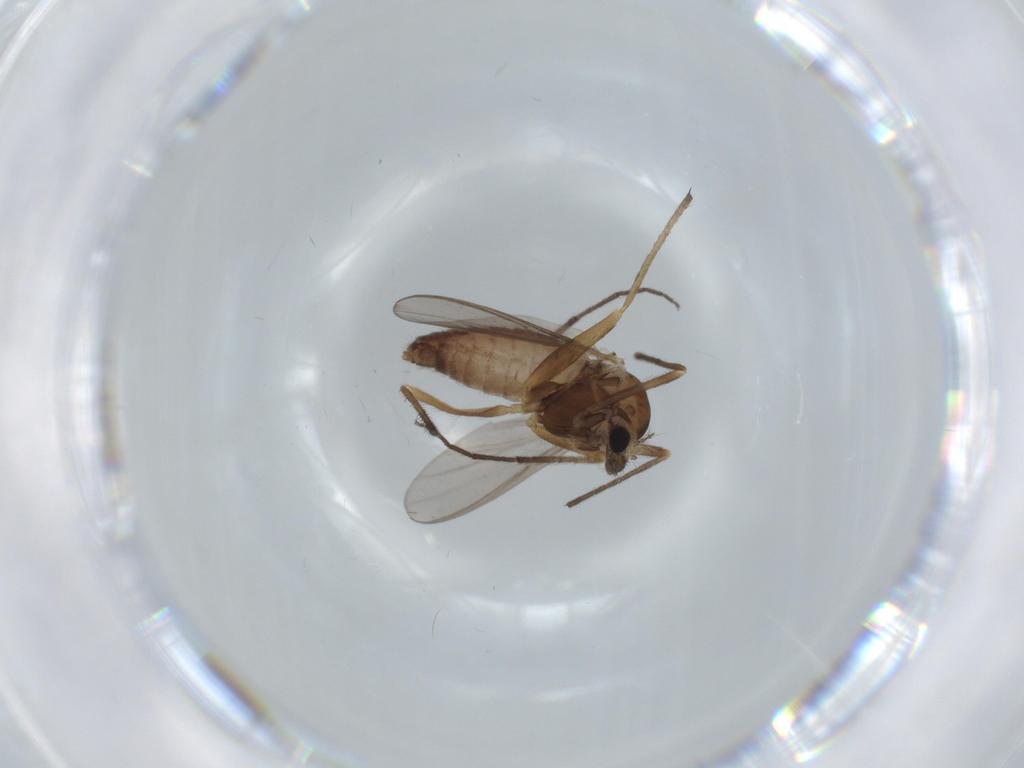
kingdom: Animalia
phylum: Arthropoda
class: Insecta
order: Diptera
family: Chironomidae
